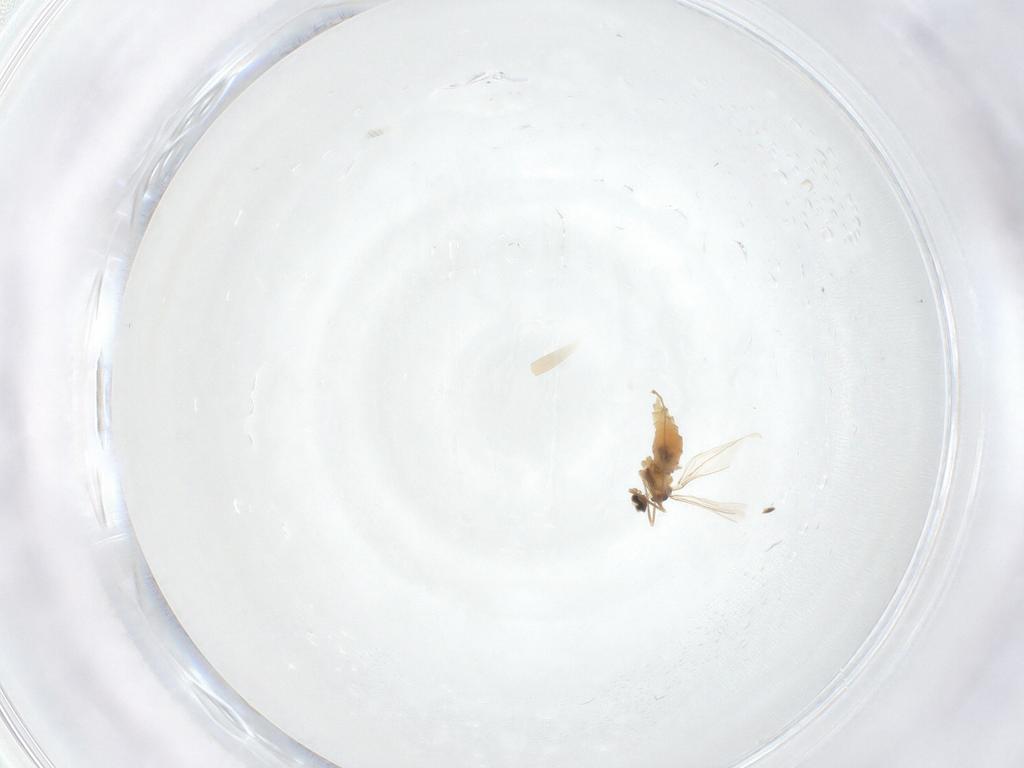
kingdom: Animalia
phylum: Arthropoda
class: Insecta
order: Diptera
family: Cecidomyiidae
